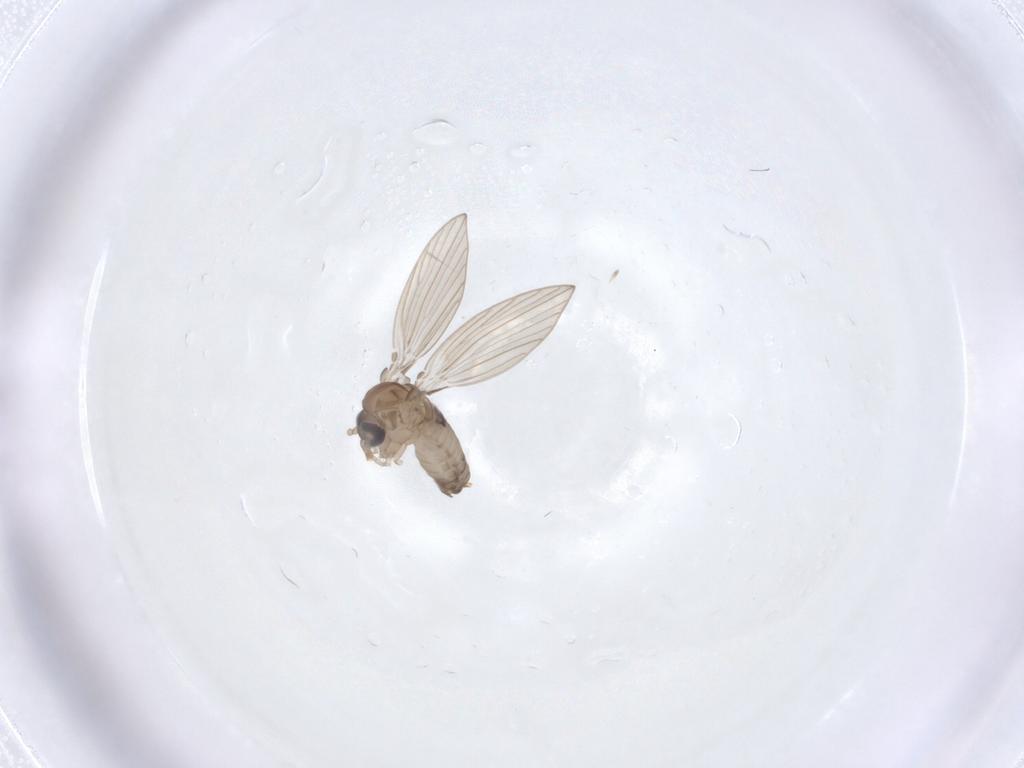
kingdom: Animalia
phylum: Arthropoda
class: Insecta
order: Diptera
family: Psychodidae
